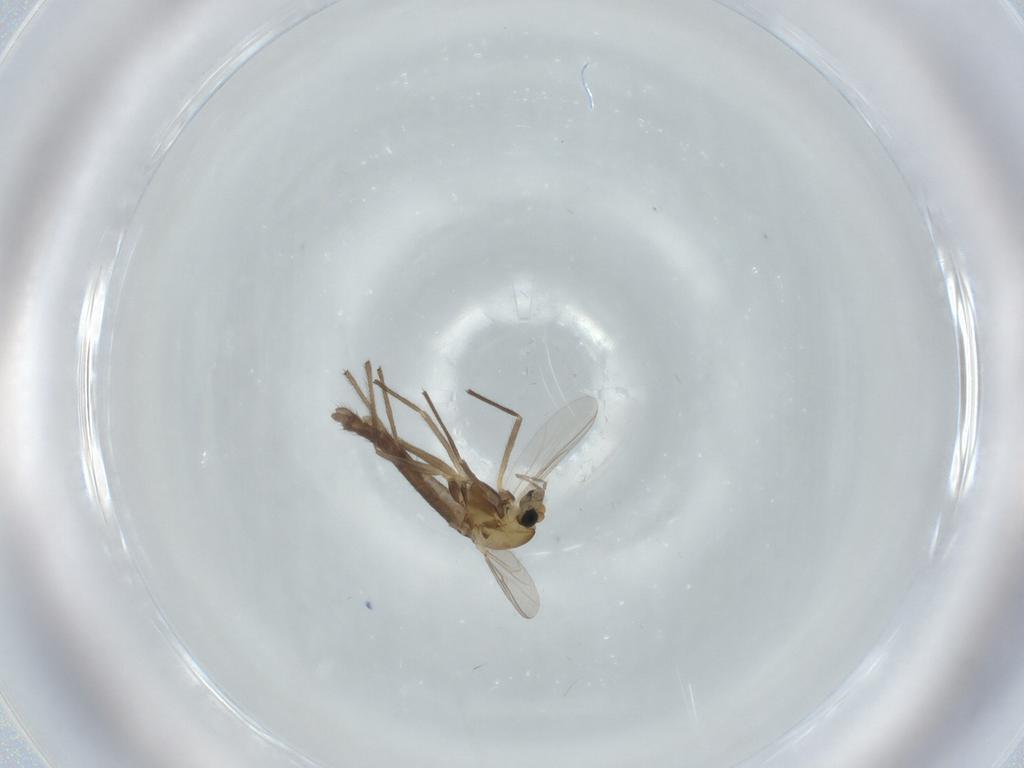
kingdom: Animalia
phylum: Arthropoda
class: Insecta
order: Diptera
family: Chironomidae
